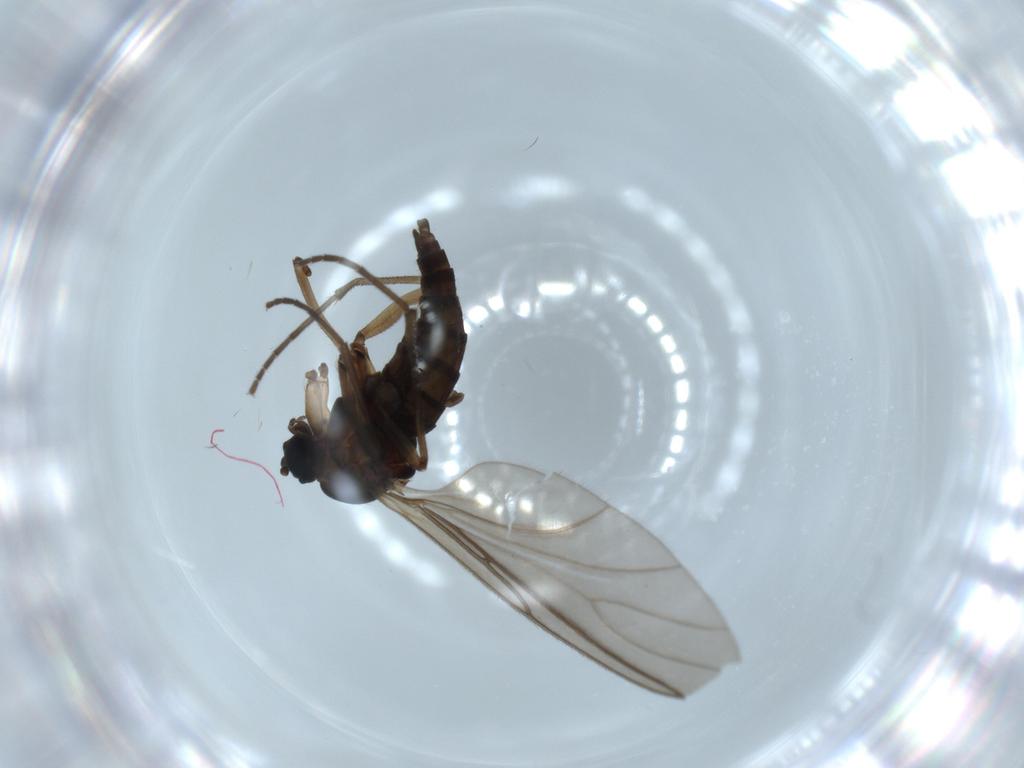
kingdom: Animalia
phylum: Arthropoda
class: Insecta
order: Diptera
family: Sciaridae
